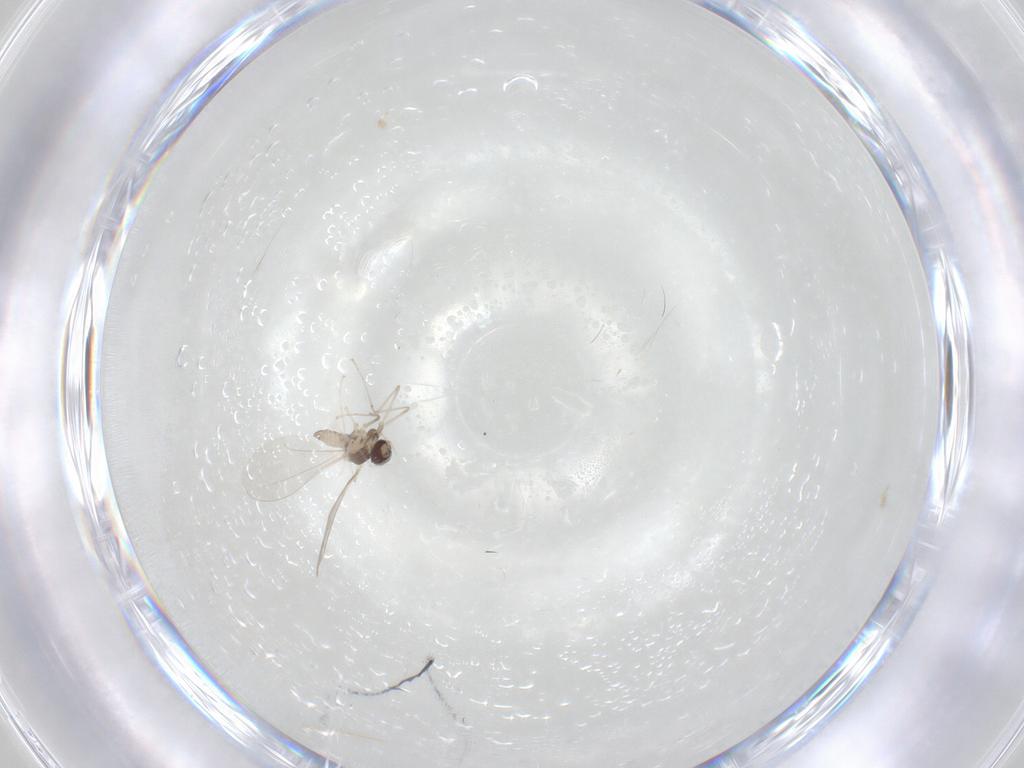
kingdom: Animalia
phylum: Arthropoda
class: Insecta
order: Diptera
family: Cecidomyiidae
